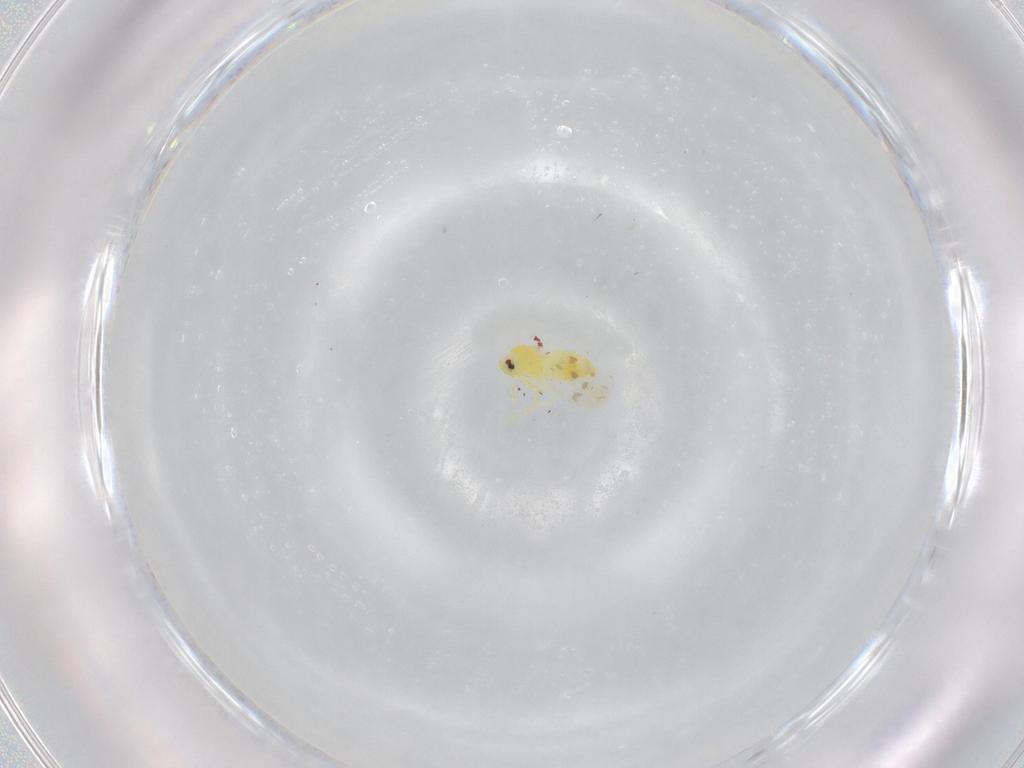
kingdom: Animalia
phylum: Arthropoda
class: Insecta
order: Hemiptera
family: Aleyrodidae
